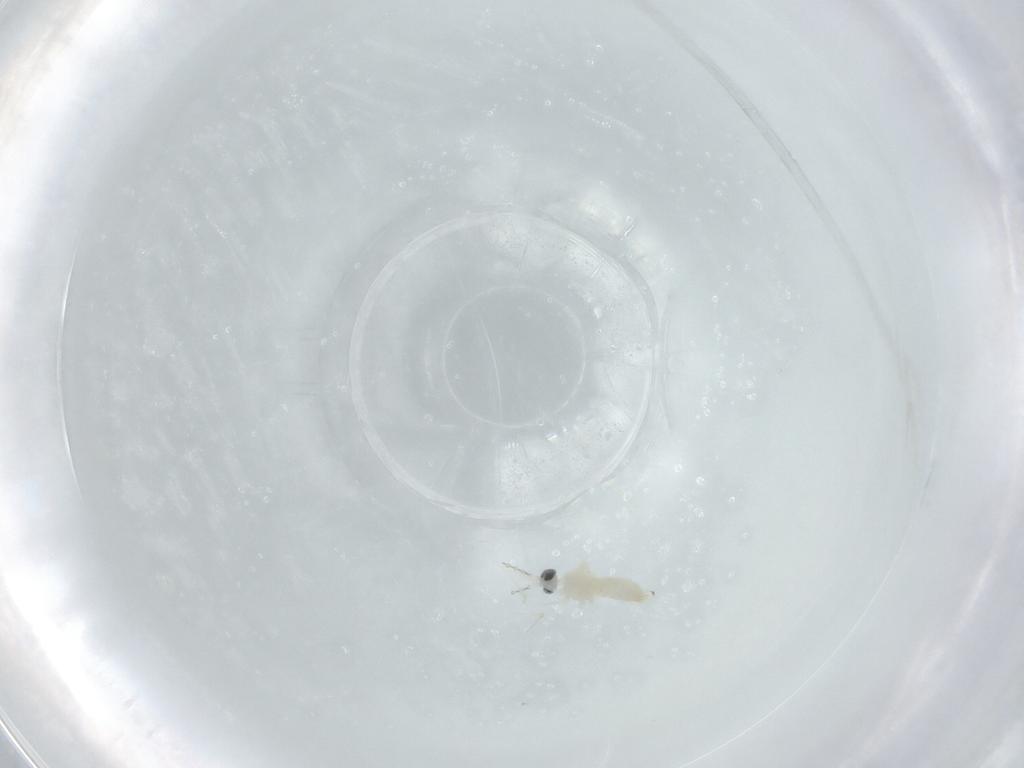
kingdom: Animalia
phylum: Arthropoda
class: Insecta
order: Diptera
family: Cecidomyiidae
